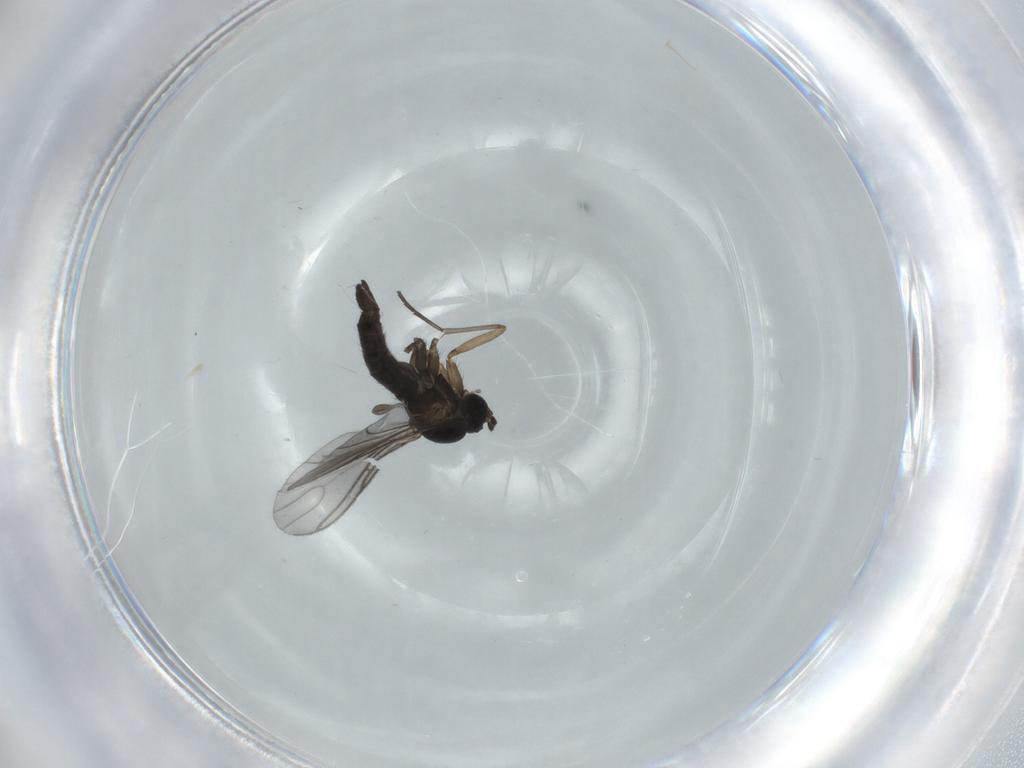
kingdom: Animalia
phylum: Arthropoda
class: Insecta
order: Diptera
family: Sciaridae
